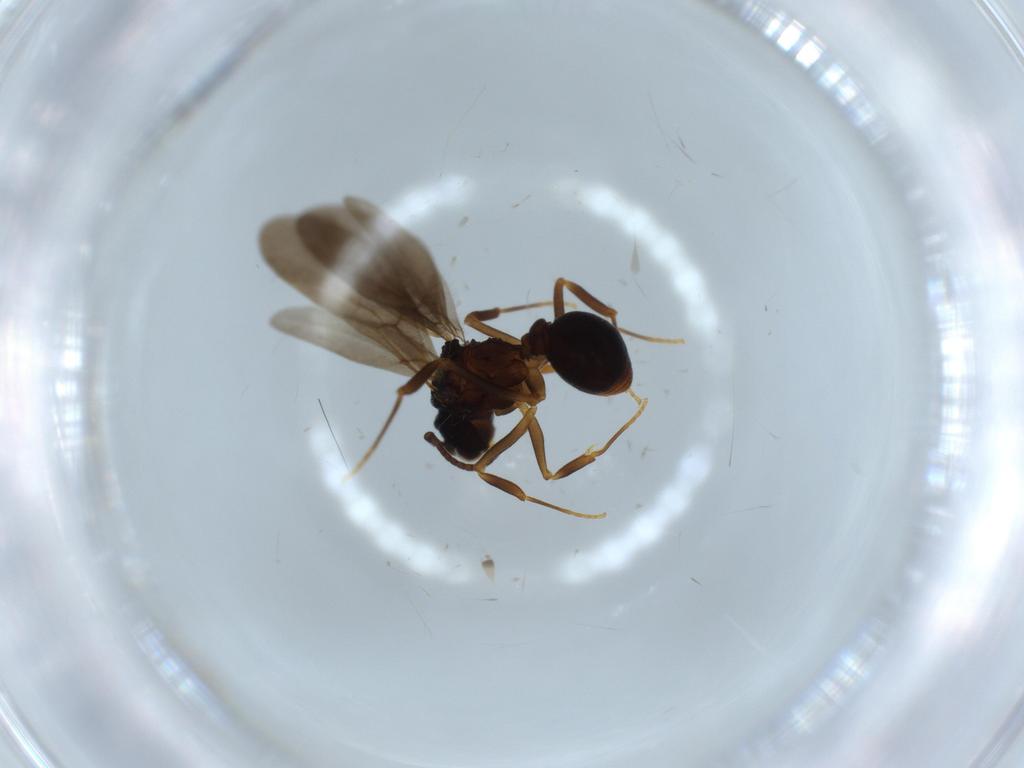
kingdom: Animalia
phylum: Arthropoda
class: Insecta
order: Hymenoptera
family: Formicidae
